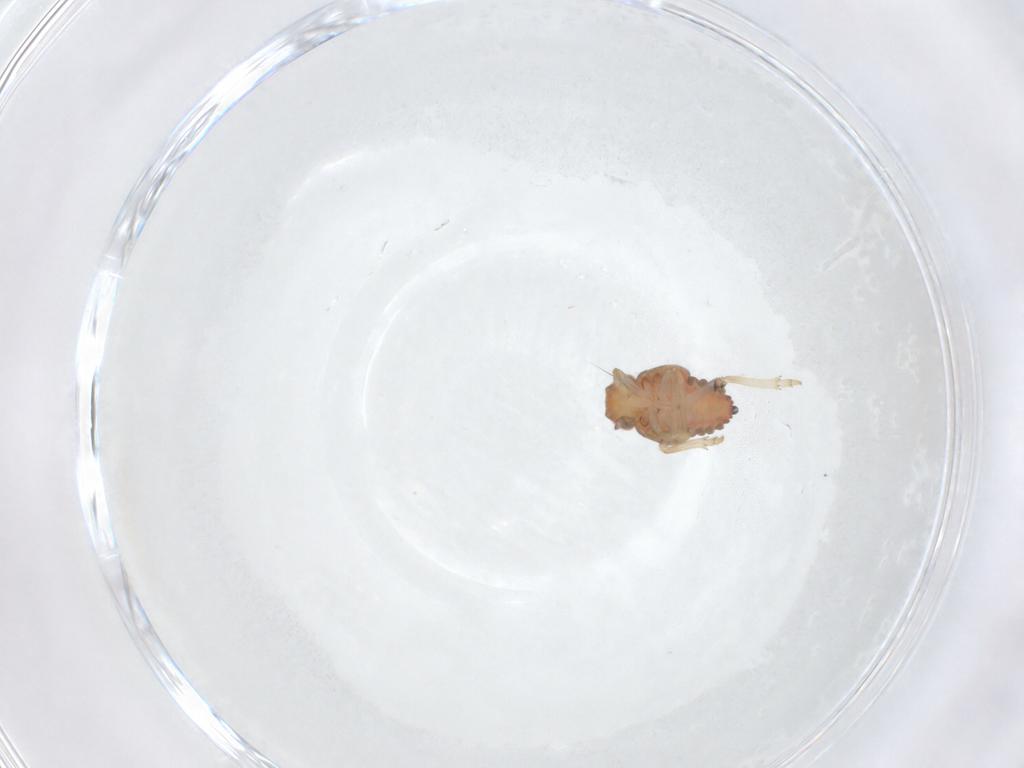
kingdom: Animalia
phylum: Arthropoda
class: Insecta
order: Hemiptera
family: Issidae
